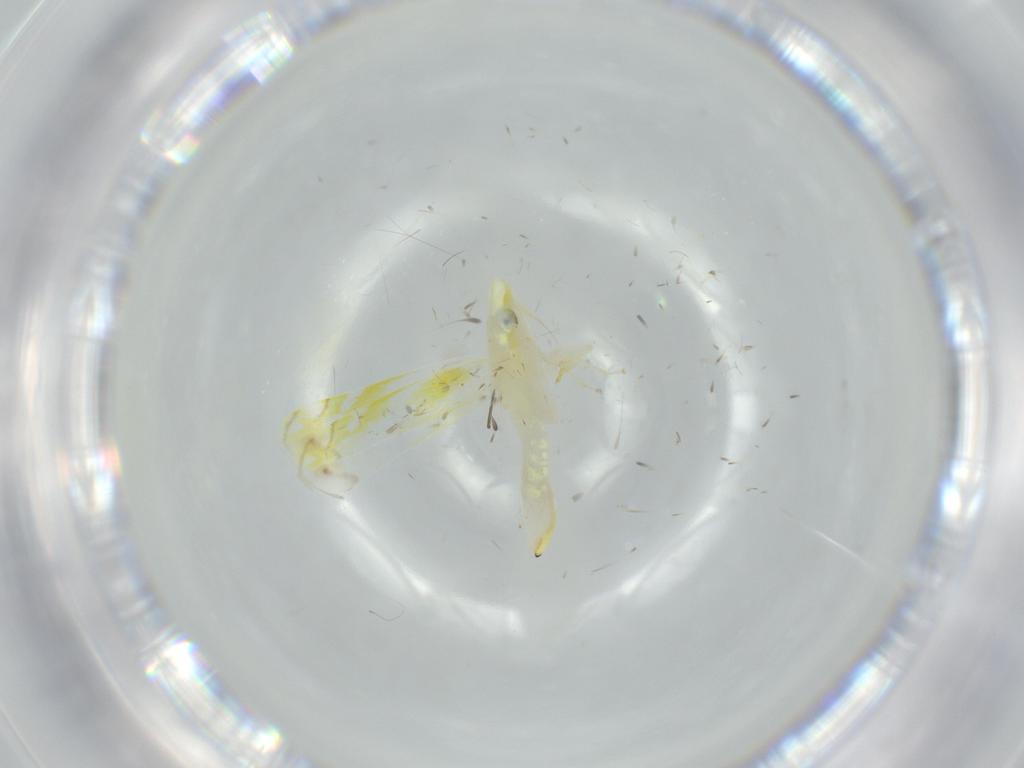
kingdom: Animalia
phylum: Arthropoda
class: Insecta
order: Hemiptera
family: Cicadellidae
